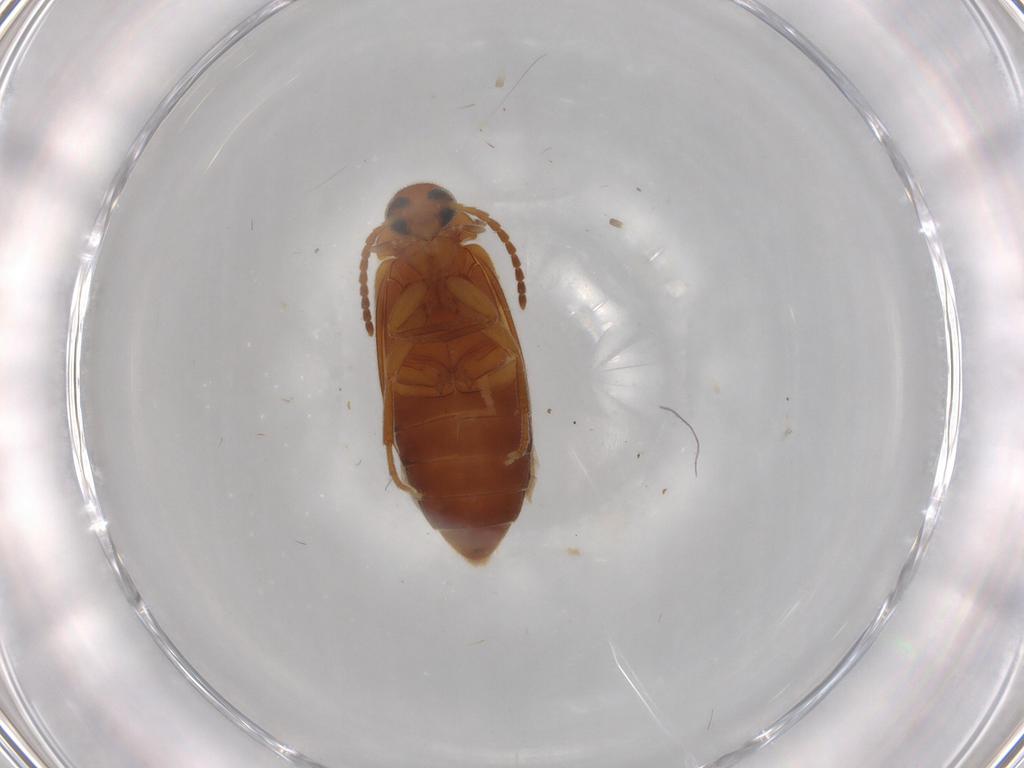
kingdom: Animalia
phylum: Arthropoda
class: Insecta
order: Coleoptera
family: Scraptiidae
